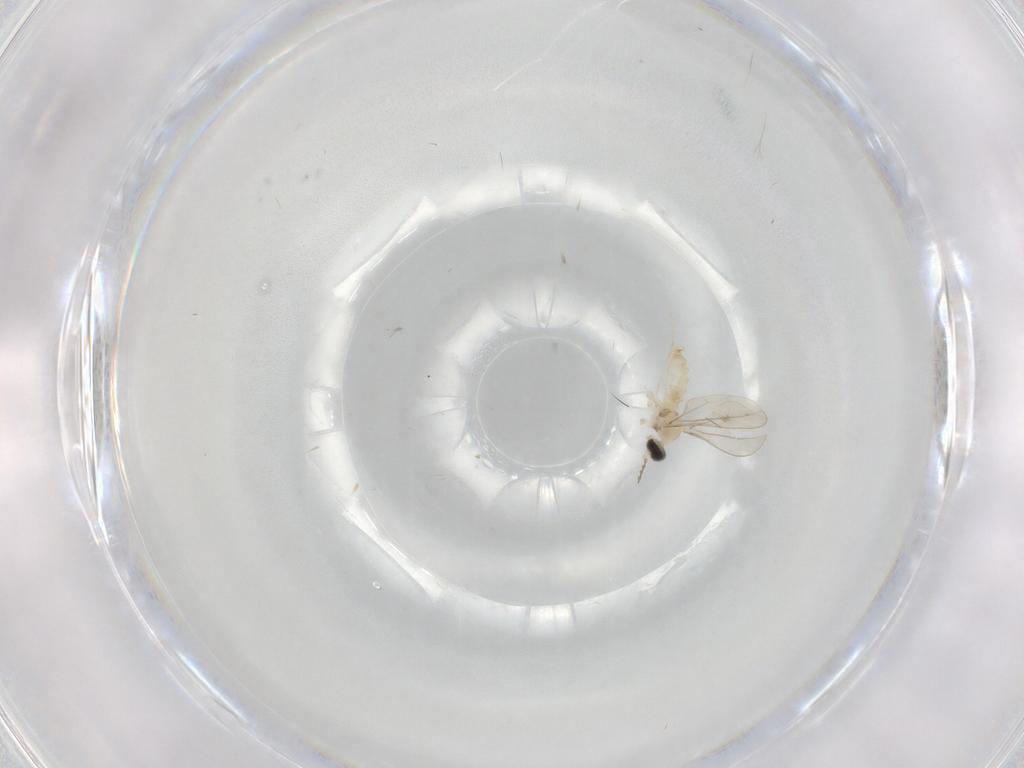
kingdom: Animalia
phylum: Arthropoda
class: Insecta
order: Diptera
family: Cecidomyiidae
